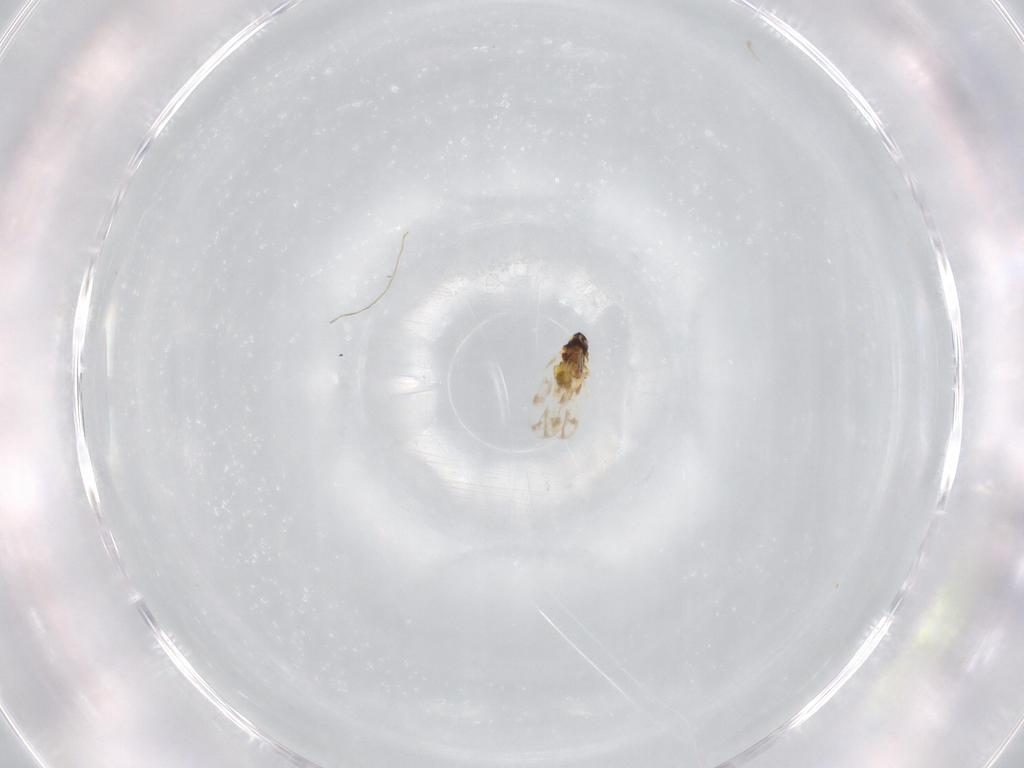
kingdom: Animalia
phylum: Arthropoda
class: Insecta
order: Hemiptera
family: Aleyrodidae
